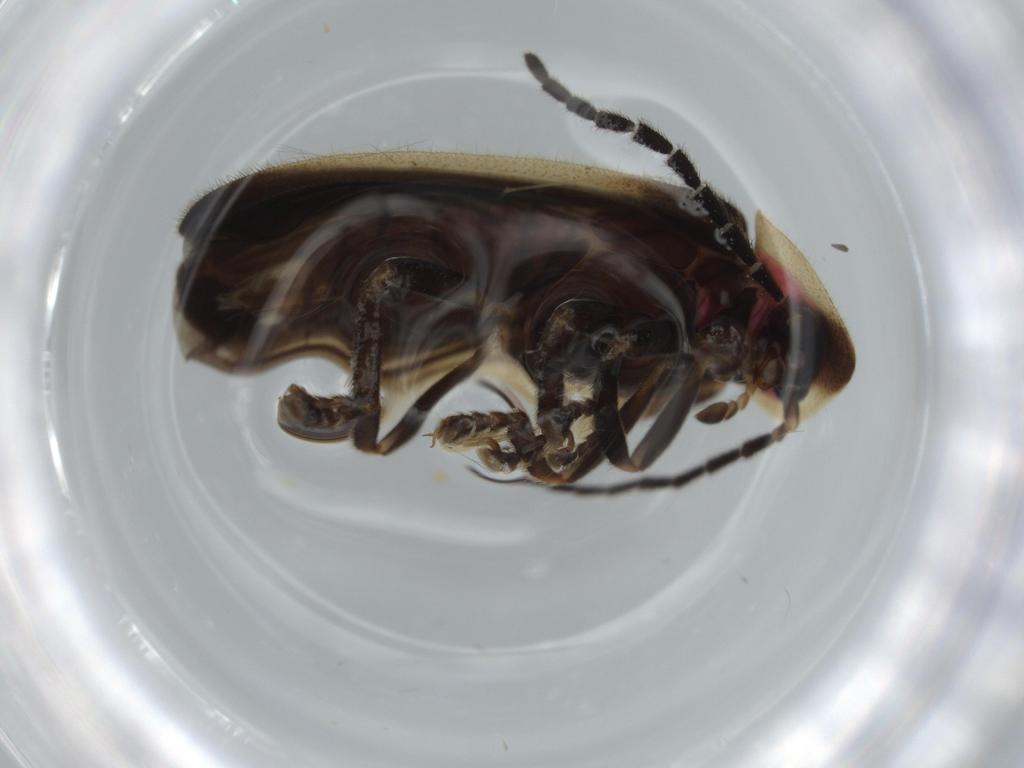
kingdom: Animalia
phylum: Arthropoda
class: Insecta
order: Coleoptera
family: Lampyridae
